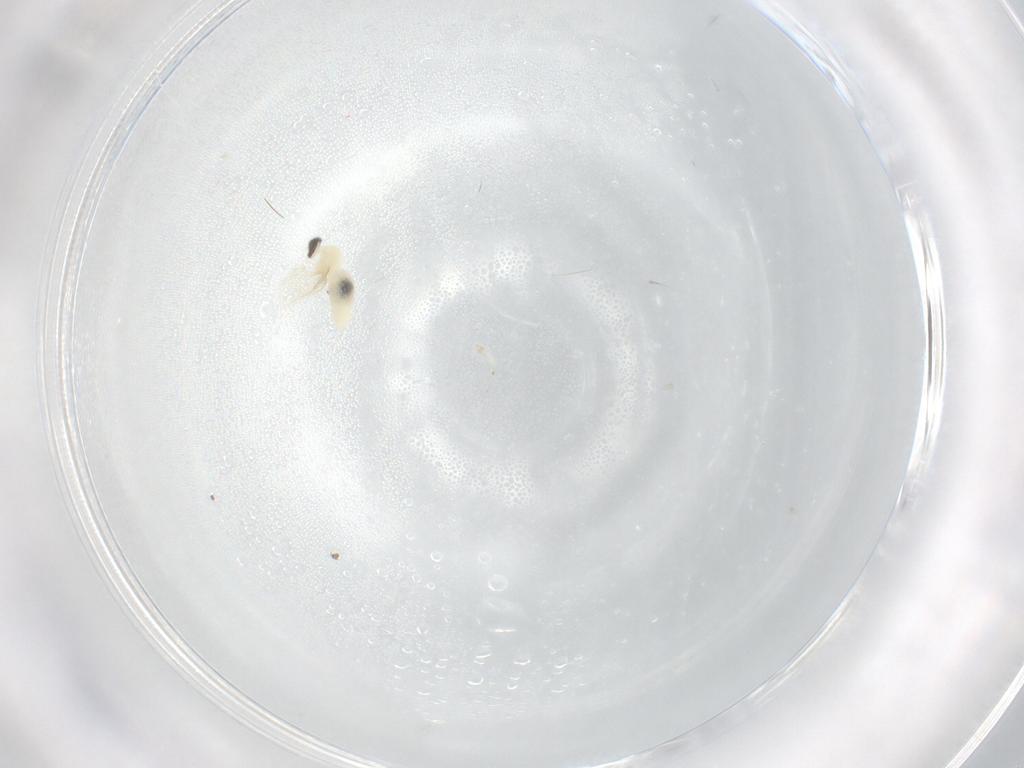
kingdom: Animalia
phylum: Arthropoda
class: Insecta
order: Diptera
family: Cecidomyiidae
